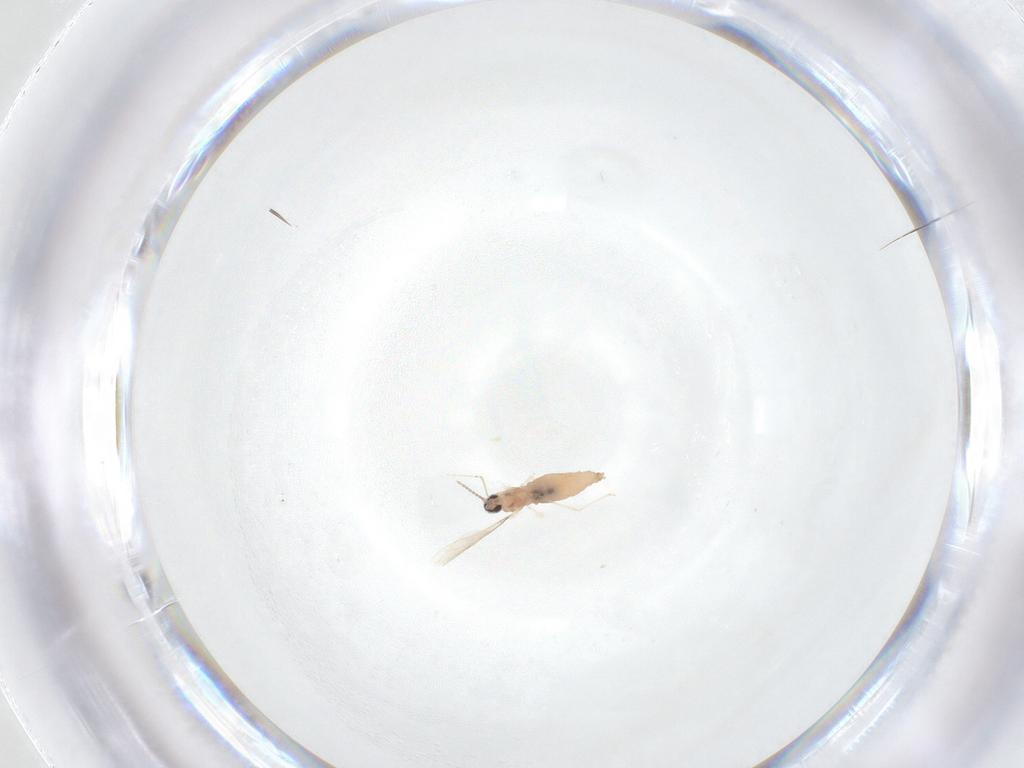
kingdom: Animalia
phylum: Arthropoda
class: Insecta
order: Diptera
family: Cecidomyiidae
